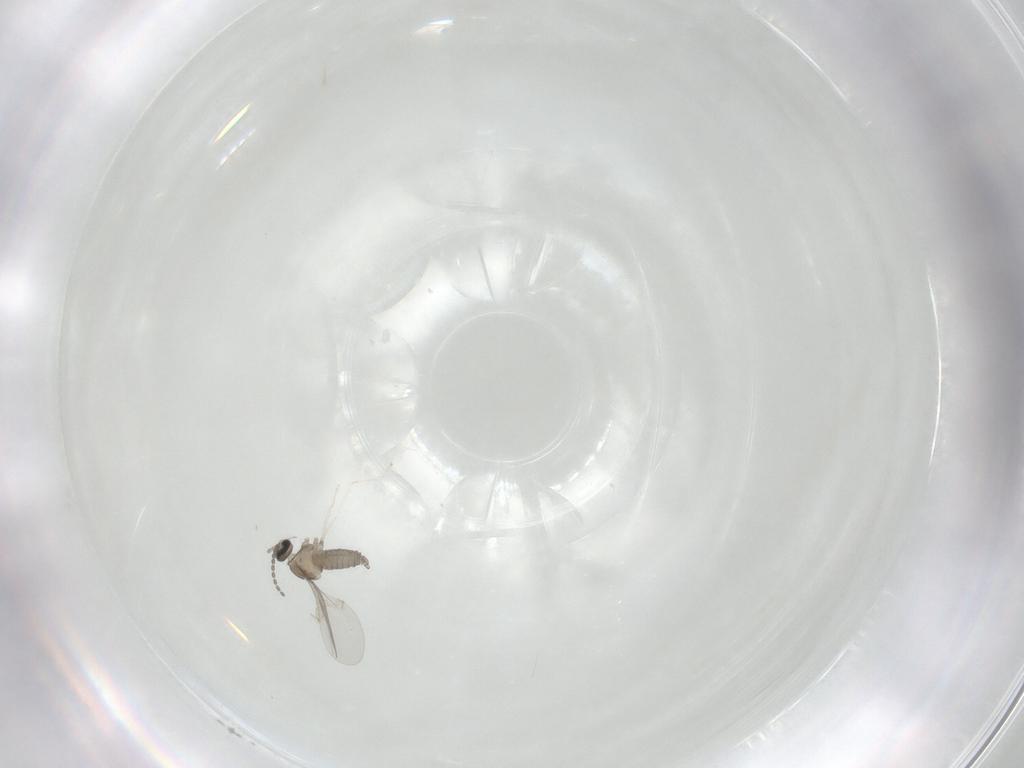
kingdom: Animalia
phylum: Arthropoda
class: Insecta
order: Diptera
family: Cecidomyiidae
